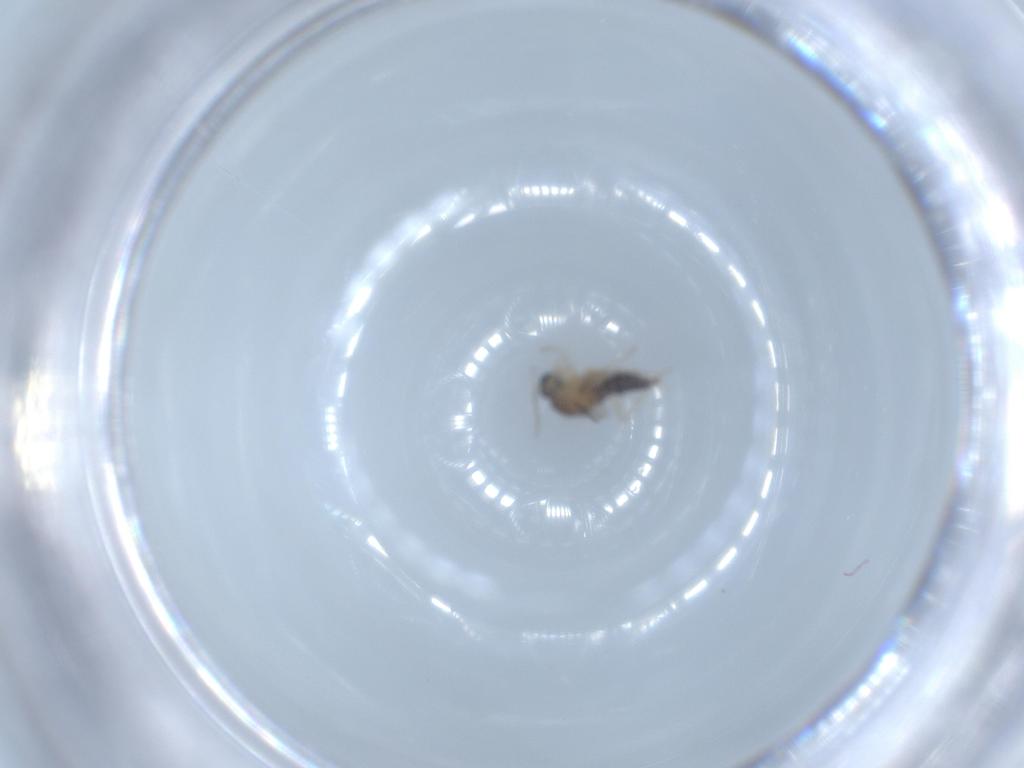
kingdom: Animalia
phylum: Arthropoda
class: Insecta
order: Diptera
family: Cecidomyiidae
